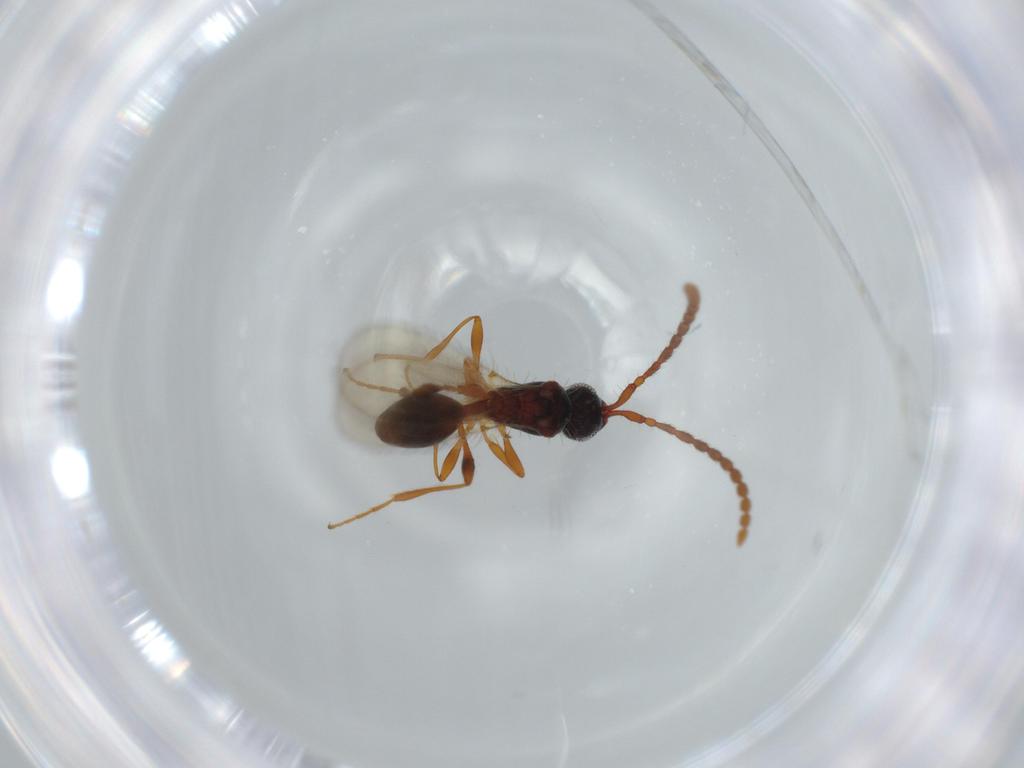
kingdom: Animalia
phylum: Arthropoda
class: Insecta
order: Hymenoptera
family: Diapriidae
